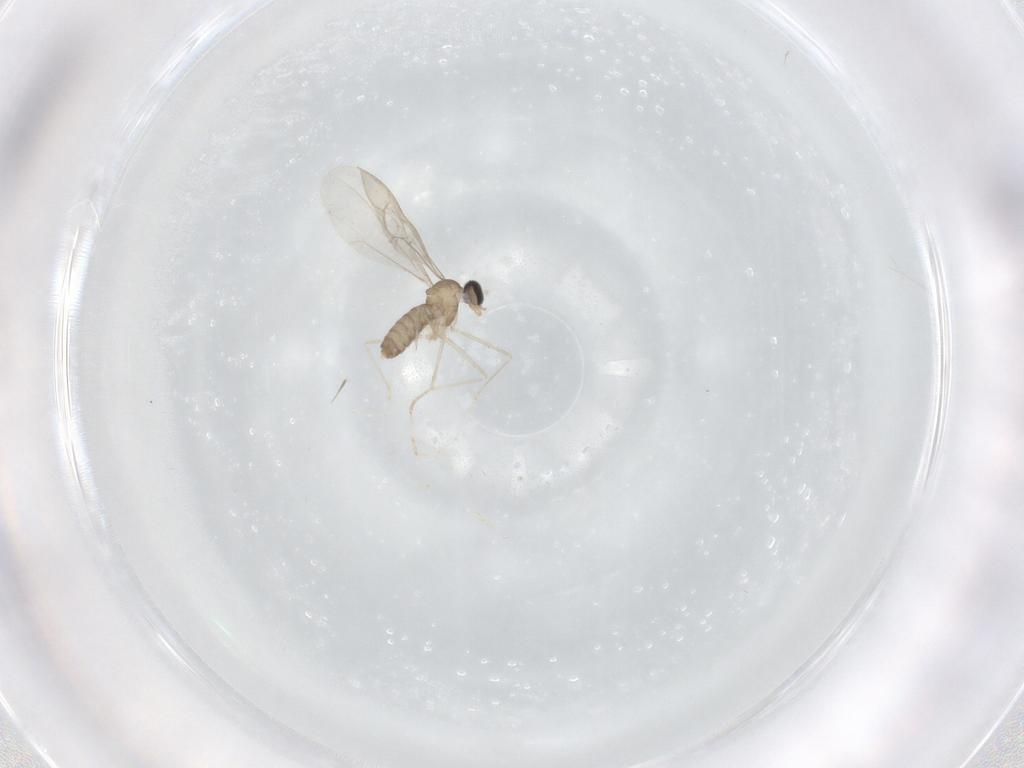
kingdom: Animalia
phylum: Arthropoda
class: Insecta
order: Diptera
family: Cecidomyiidae
